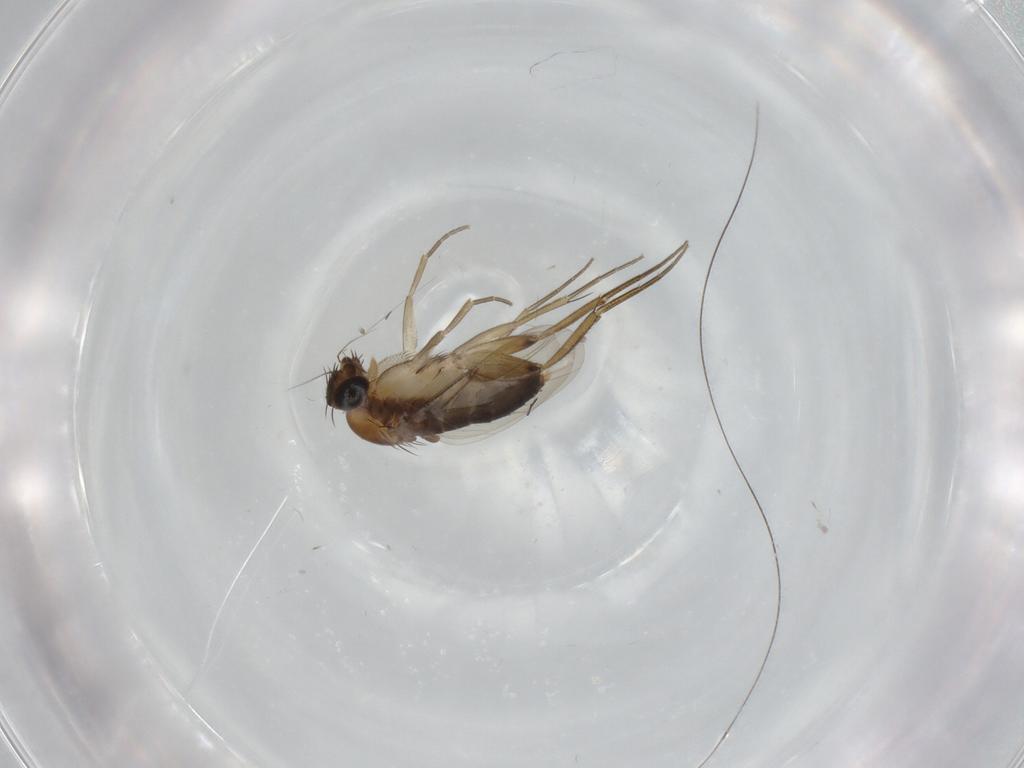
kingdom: Animalia
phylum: Arthropoda
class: Insecta
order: Diptera
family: Phoridae
